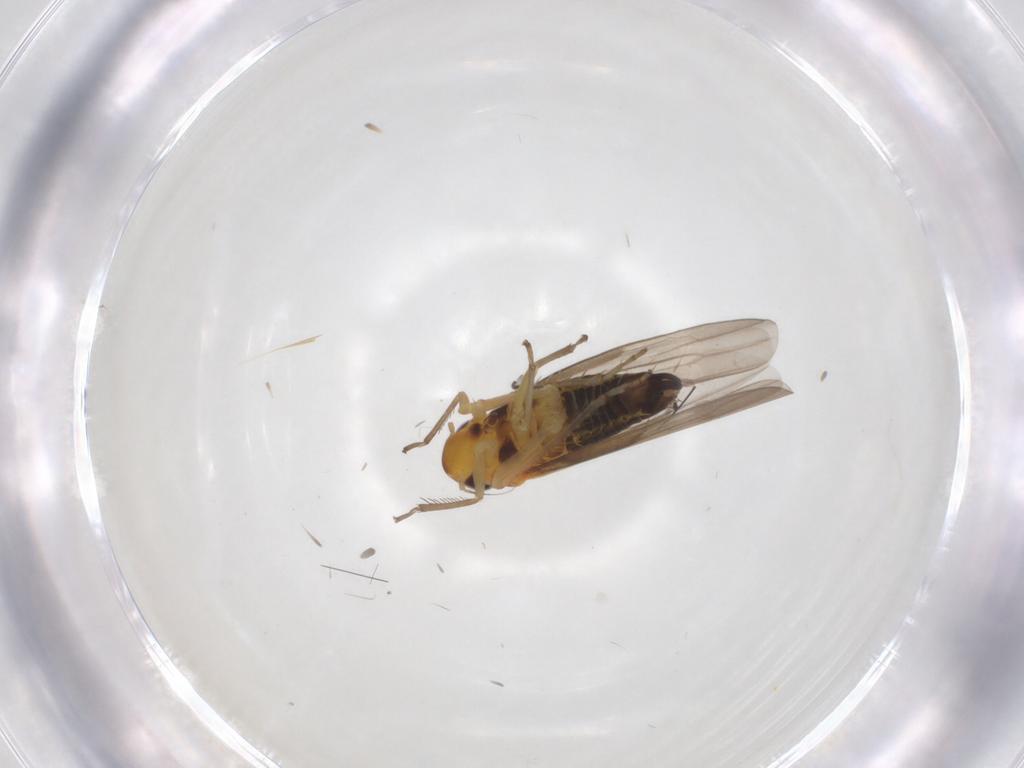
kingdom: Animalia
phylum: Arthropoda
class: Insecta
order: Hemiptera
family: Cicadellidae
